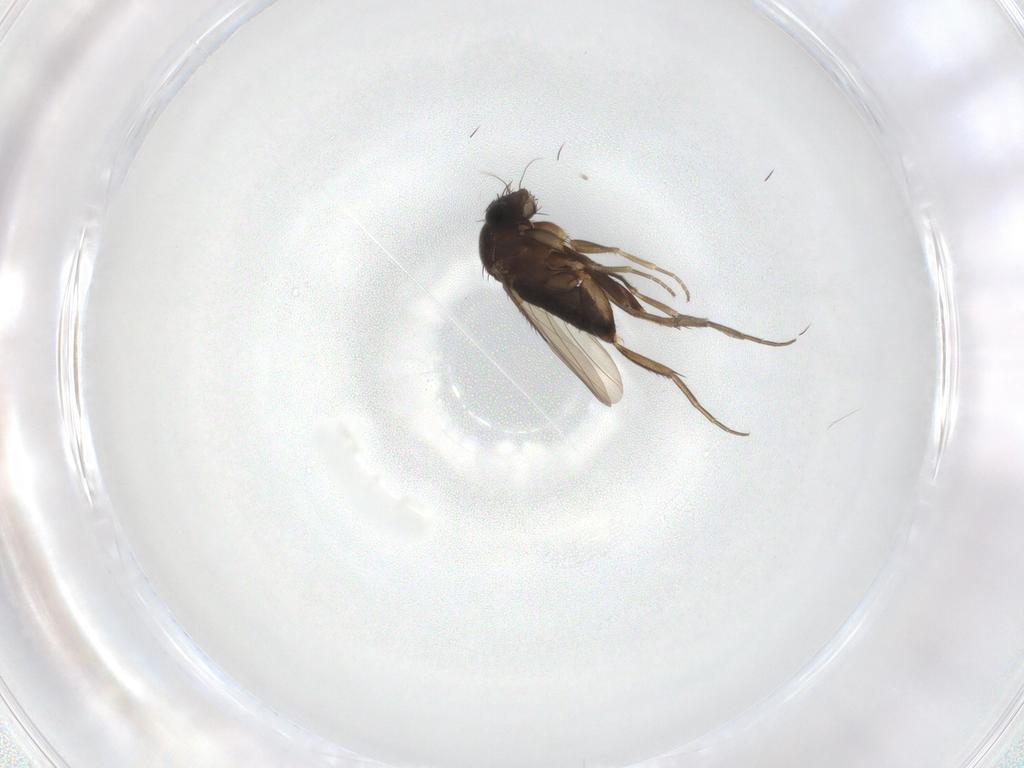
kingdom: Animalia
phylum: Arthropoda
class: Insecta
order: Diptera
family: Phoridae
